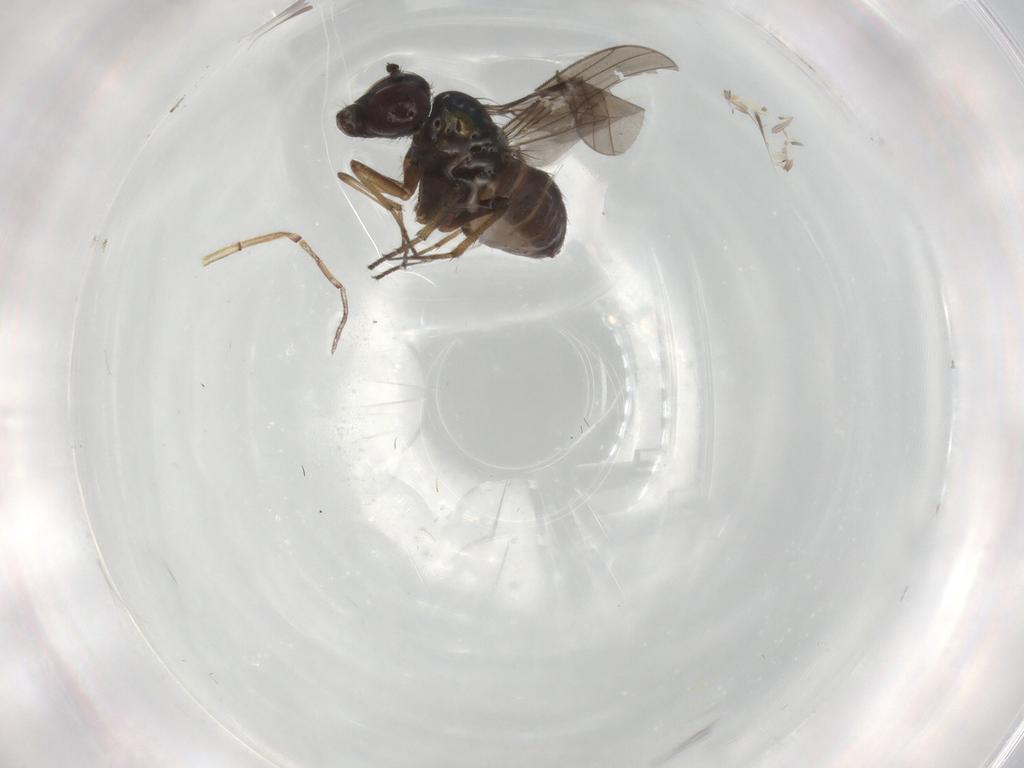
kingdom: Animalia
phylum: Arthropoda
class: Insecta
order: Diptera
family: Dolichopodidae
